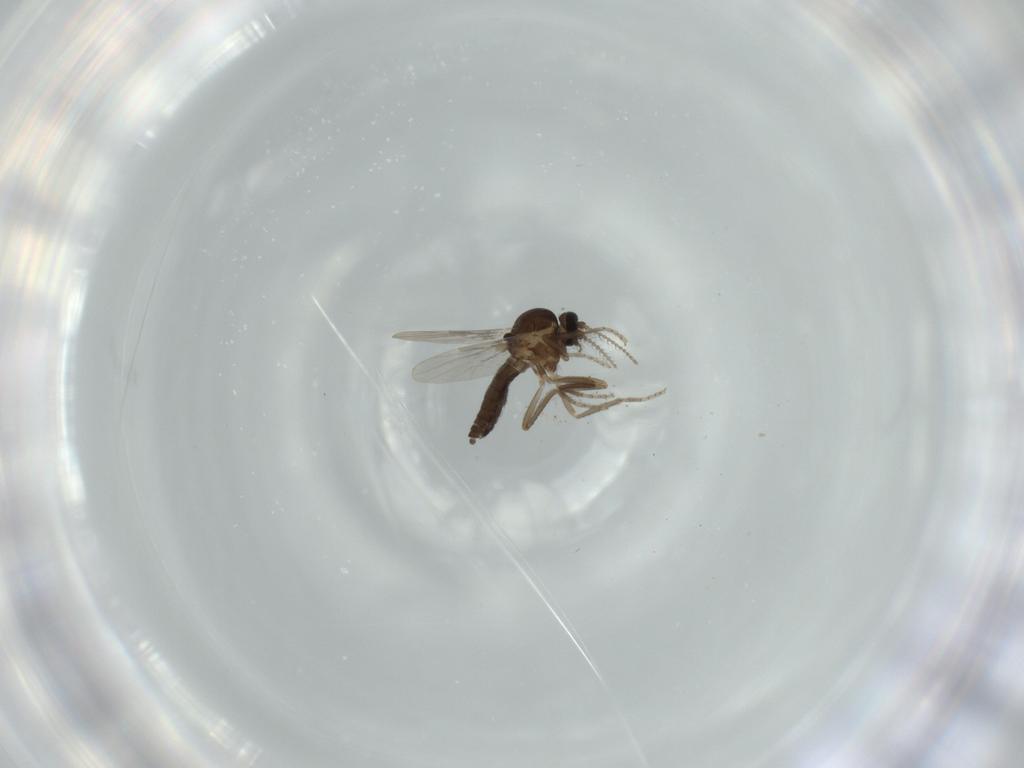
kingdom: Animalia
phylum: Arthropoda
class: Insecta
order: Diptera
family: Ceratopogonidae
